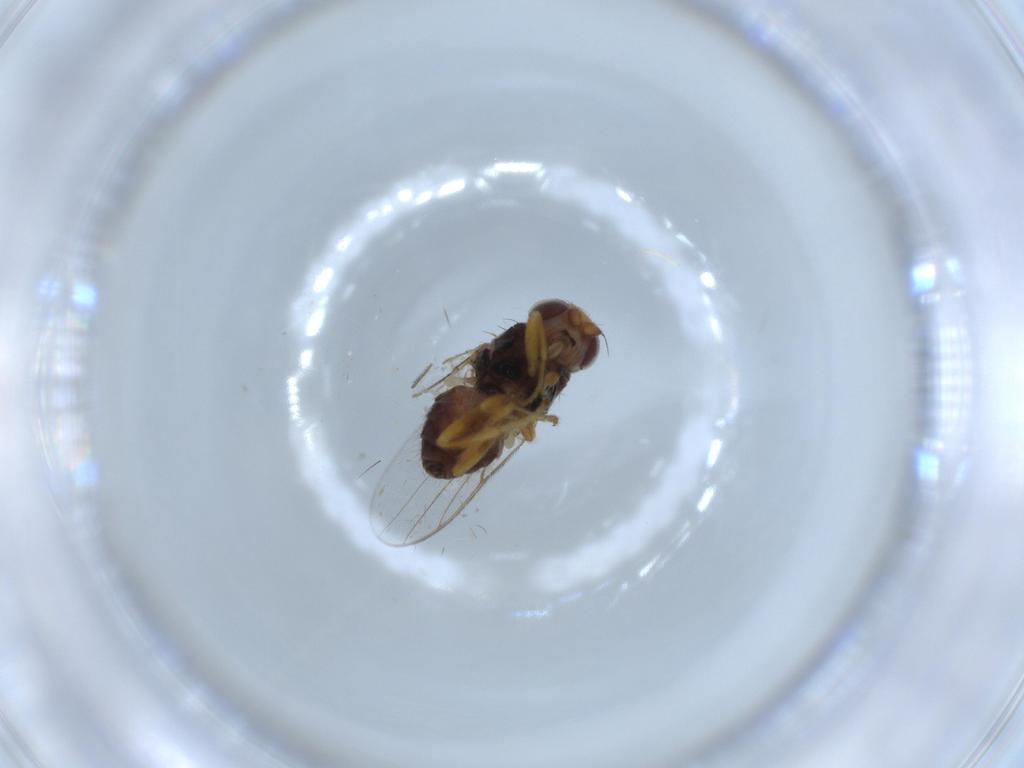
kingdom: Animalia
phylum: Arthropoda
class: Insecta
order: Diptera
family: Chloropidae
